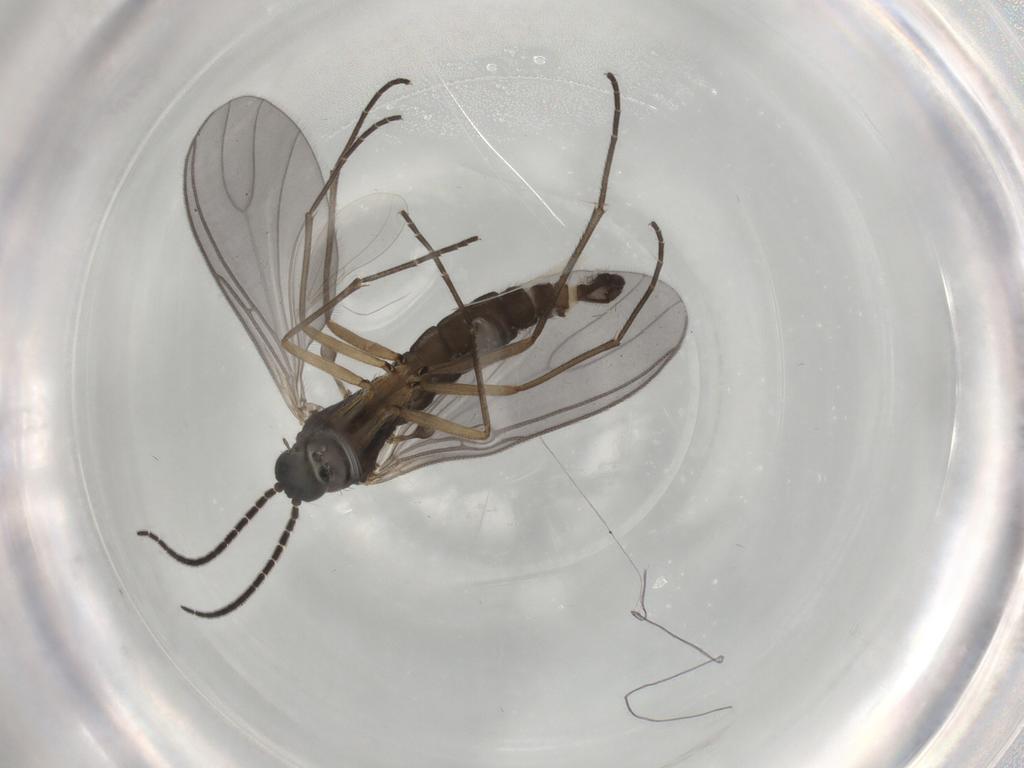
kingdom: Animalia
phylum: Arthropoda
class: Insecta
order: Diptera
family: Sciaridae
